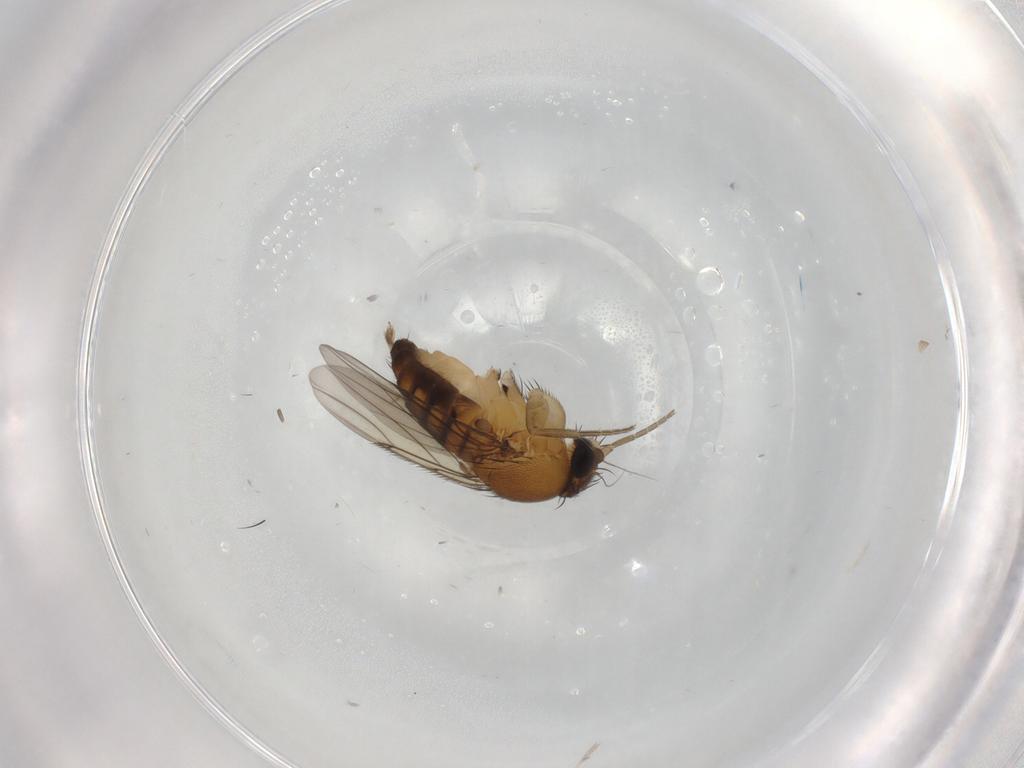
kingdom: Animalia
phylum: Arthropoda
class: Insecta
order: Diptera
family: Phoridae
